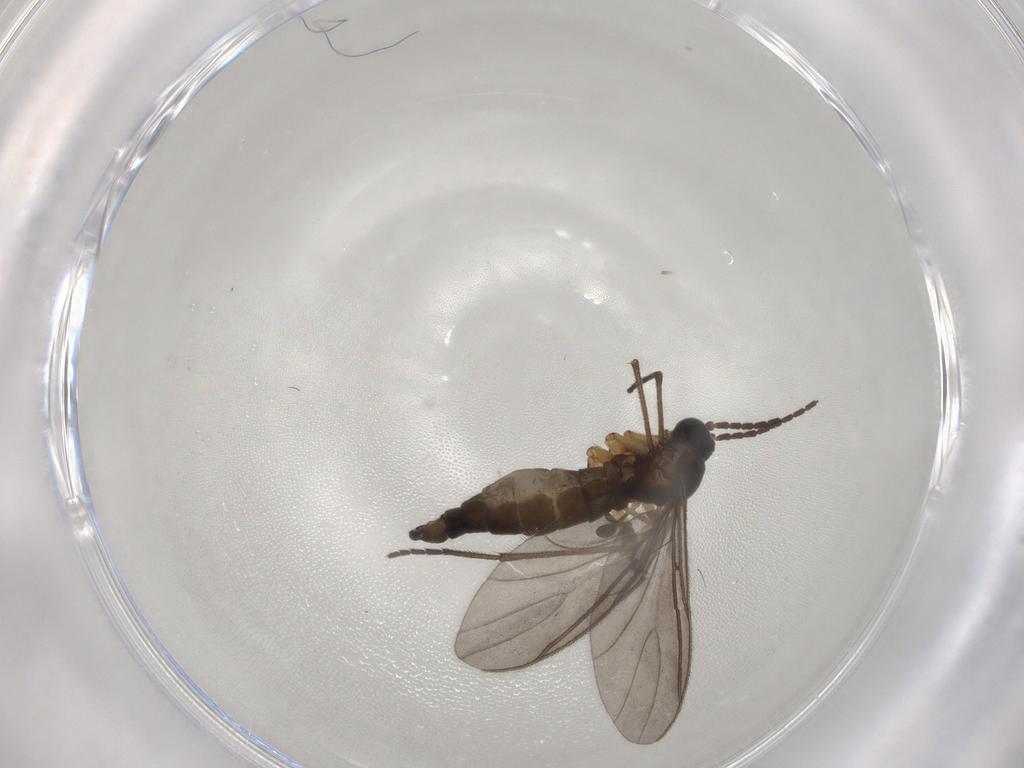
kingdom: Animalia
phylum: Arthropoda
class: Insecta
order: Diptera
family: Sciaridae
